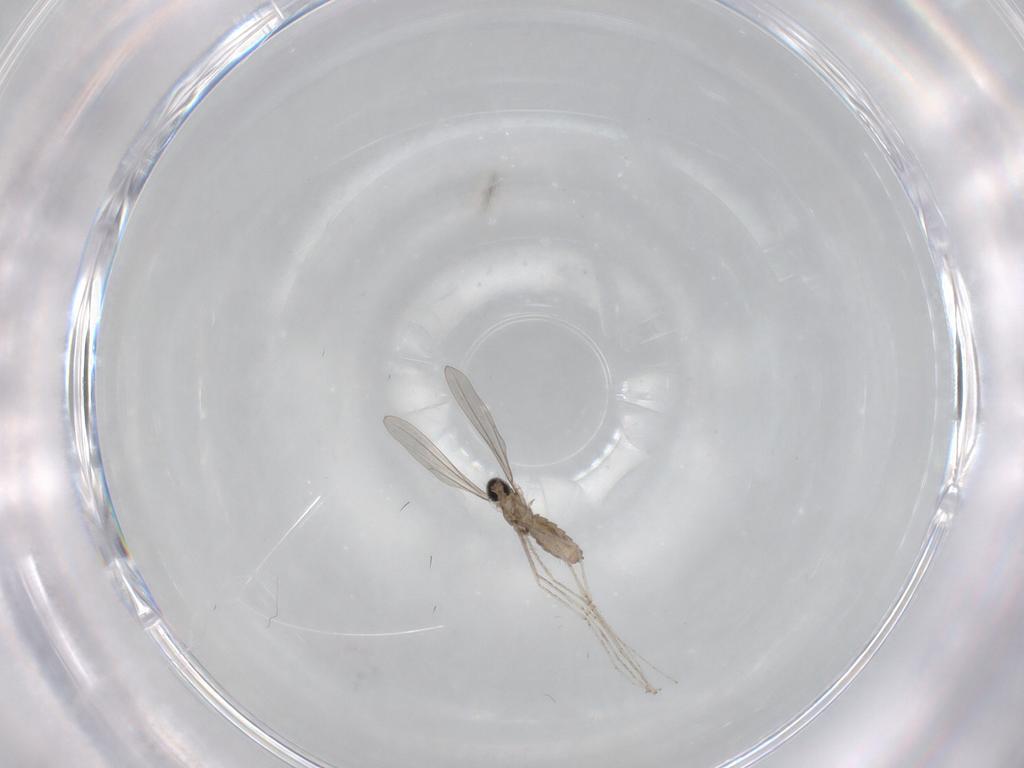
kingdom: Animalia
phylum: Arthropoda
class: Insecta
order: Diptera
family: Cecidomyiidae
